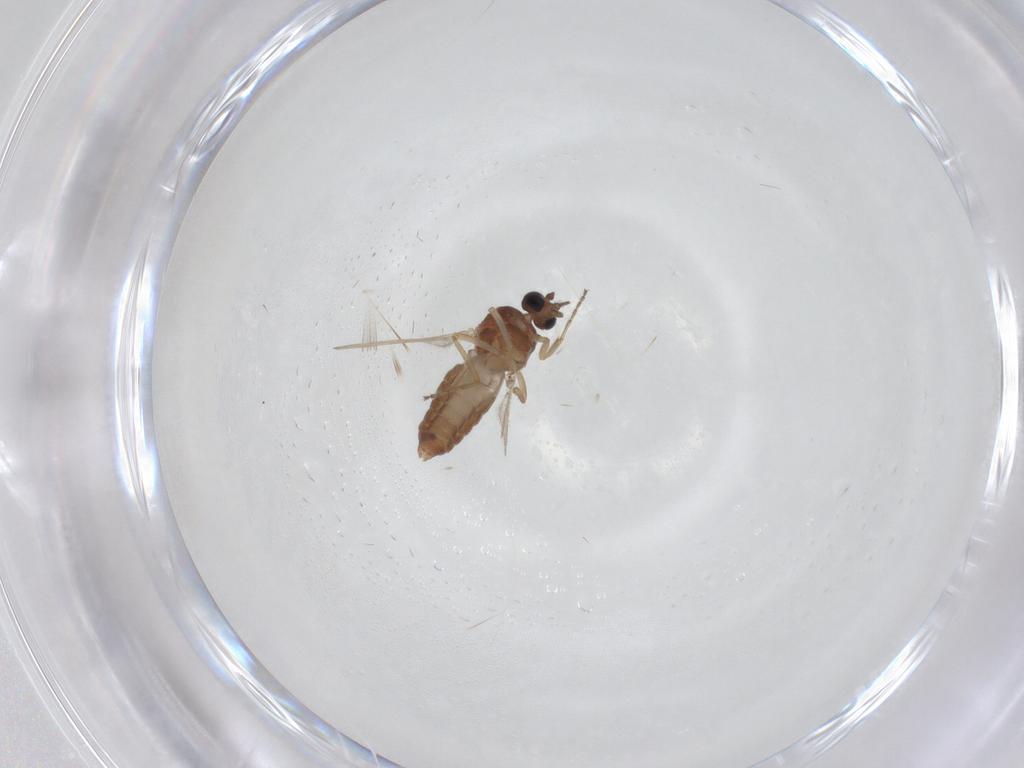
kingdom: Animalia
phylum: Arthropoda
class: Insecta
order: Diptera
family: Ceratopogonidae
